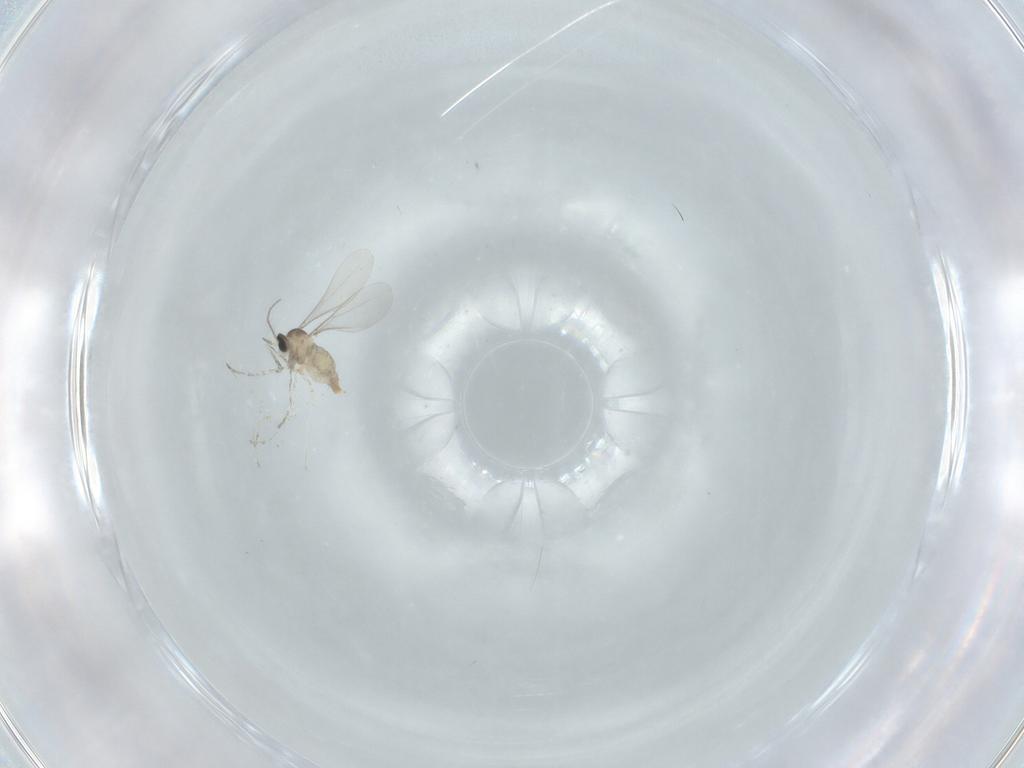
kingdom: Animalia
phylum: Arthropoda
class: Insecta
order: Diptera
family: Cecidomyiidae
